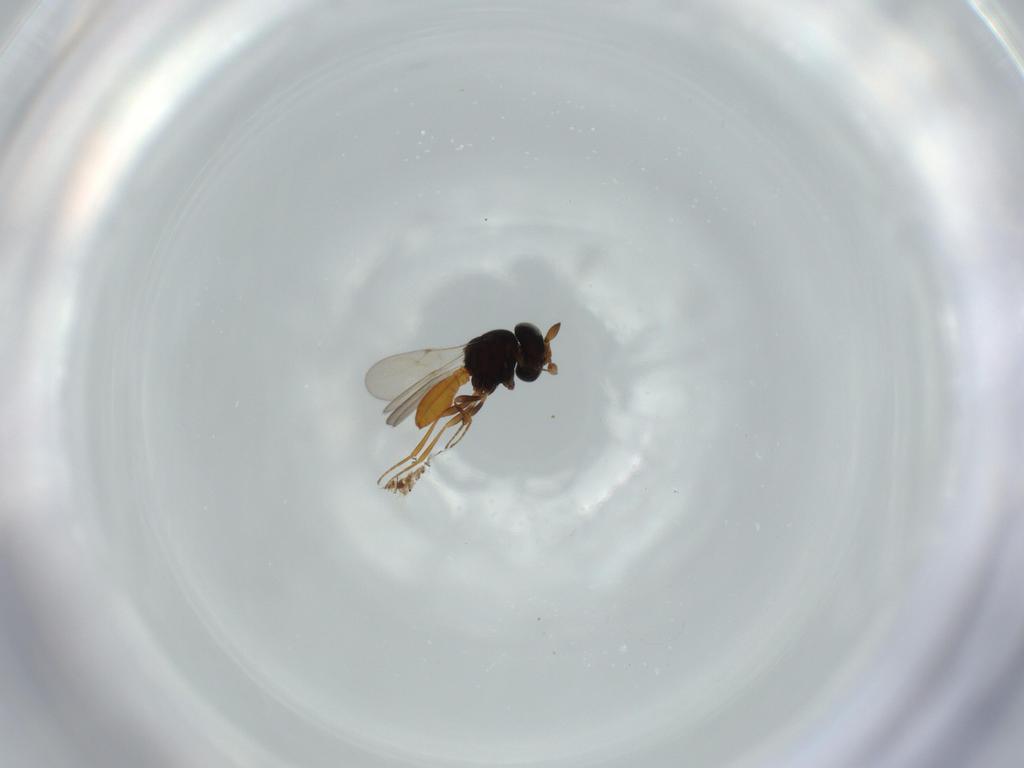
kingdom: Animalia
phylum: Arthropoda
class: Insecta
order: Hymenoptera
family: Scelionidae
